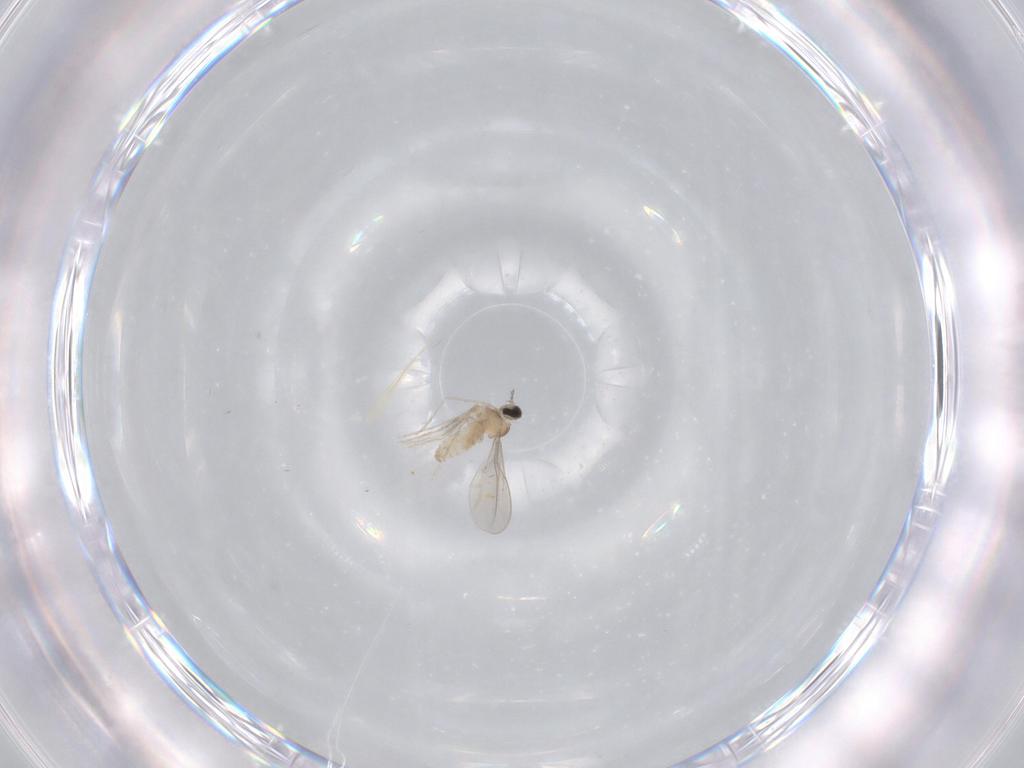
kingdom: Animalia
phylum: Arthropoda
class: Insecta
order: Diptera
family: Cecidomyiidae
